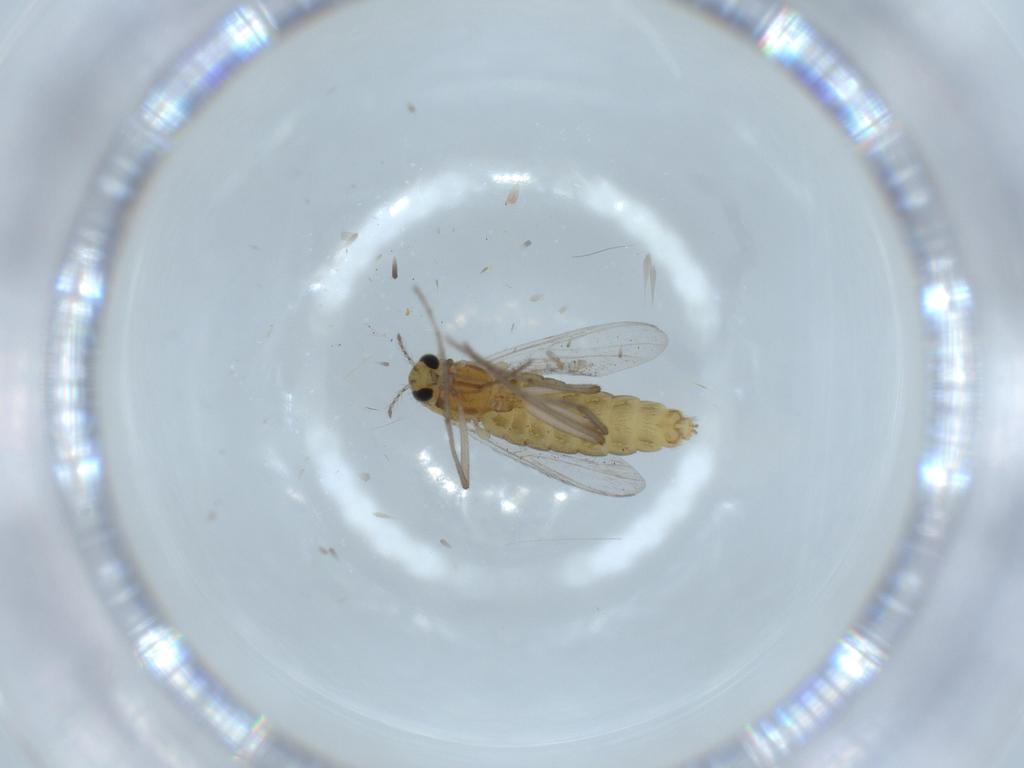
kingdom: Animalia
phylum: Arthropoda
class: Insecta
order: Diptera
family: Chironomidae
